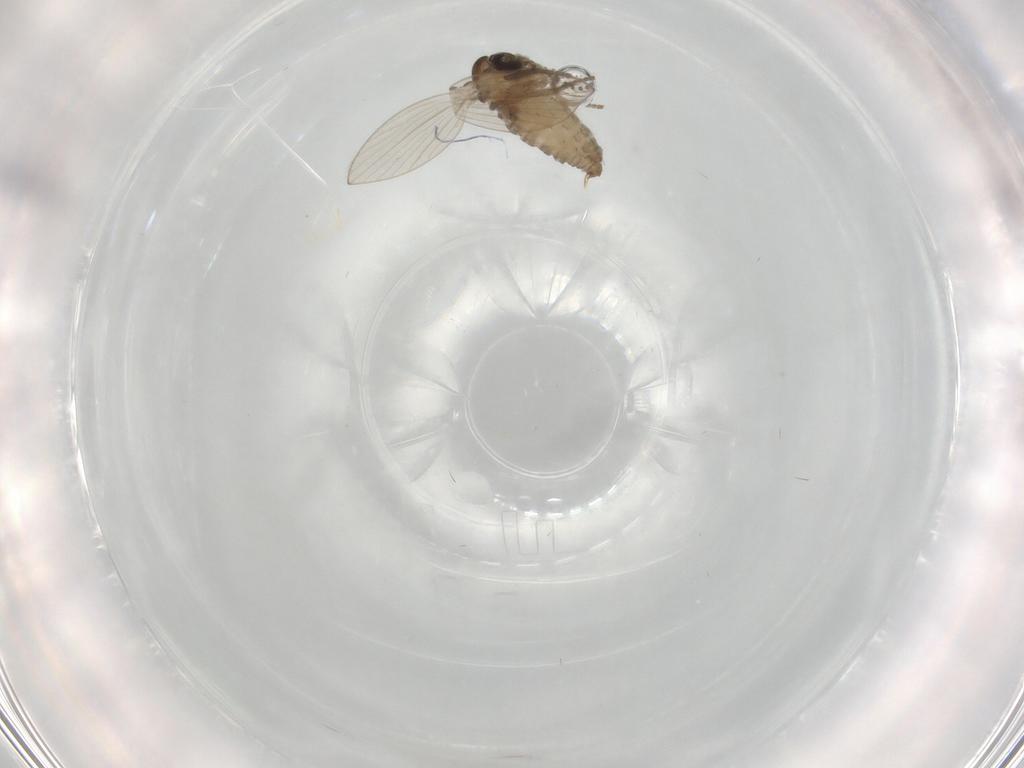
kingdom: Animalia
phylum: Arthropoda
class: Insecta
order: Diptera
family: Psychodidae
